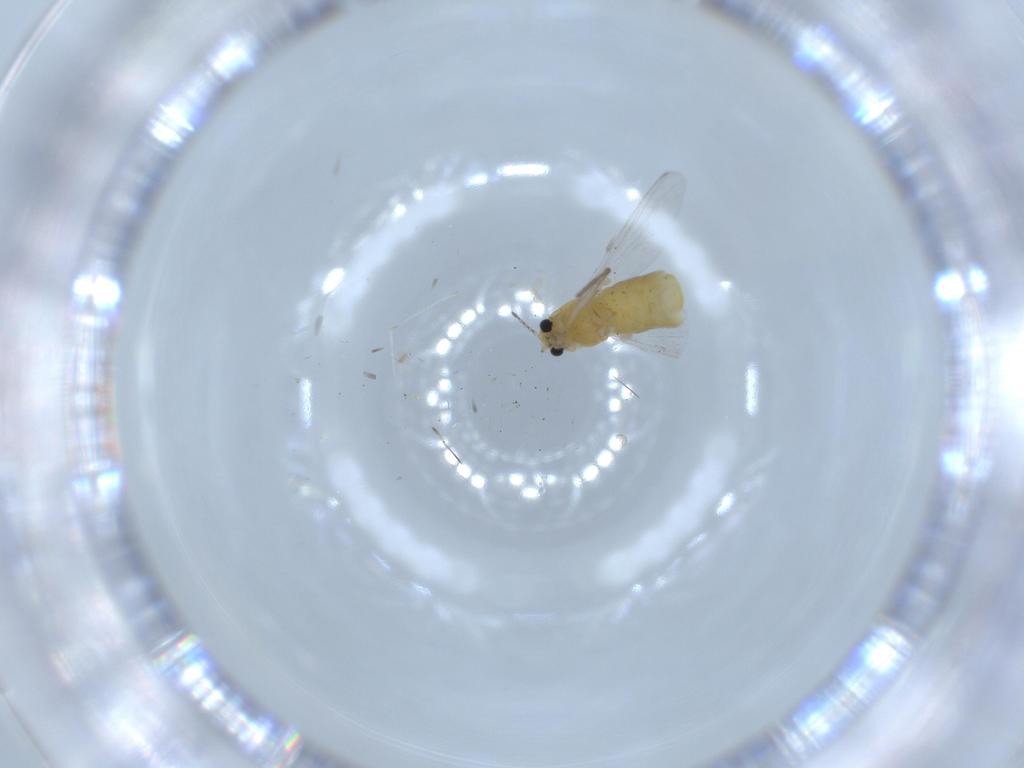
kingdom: Animalia
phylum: Arthropoda
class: Insecta
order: Diptera
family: Chironomidae
